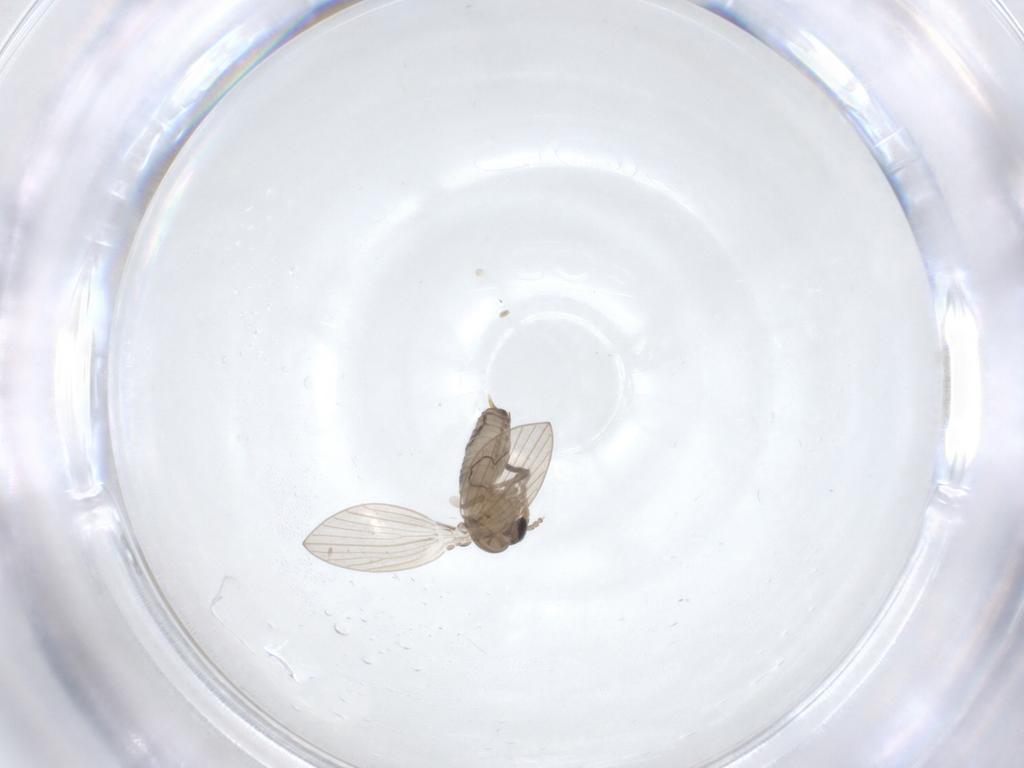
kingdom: Animalia
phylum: Arthropoda
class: Insecta
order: Diptera
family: Psychodidae
